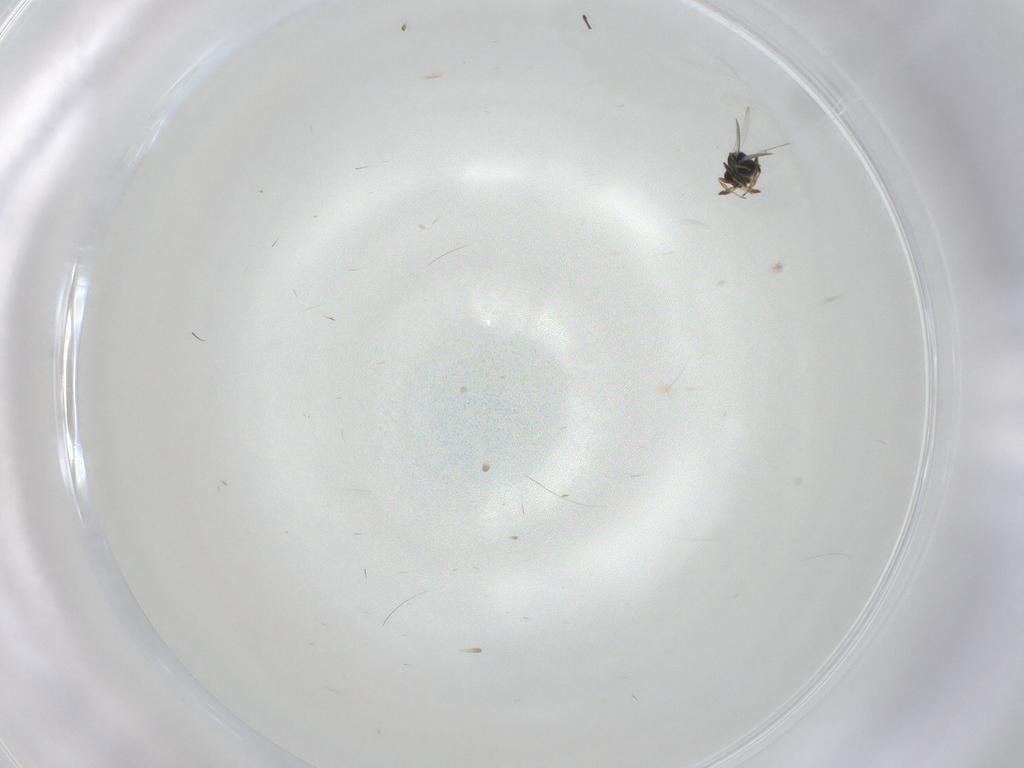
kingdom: Animalia
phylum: Arthropoda
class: Insecta
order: Hymenoptera
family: Platygastridae
